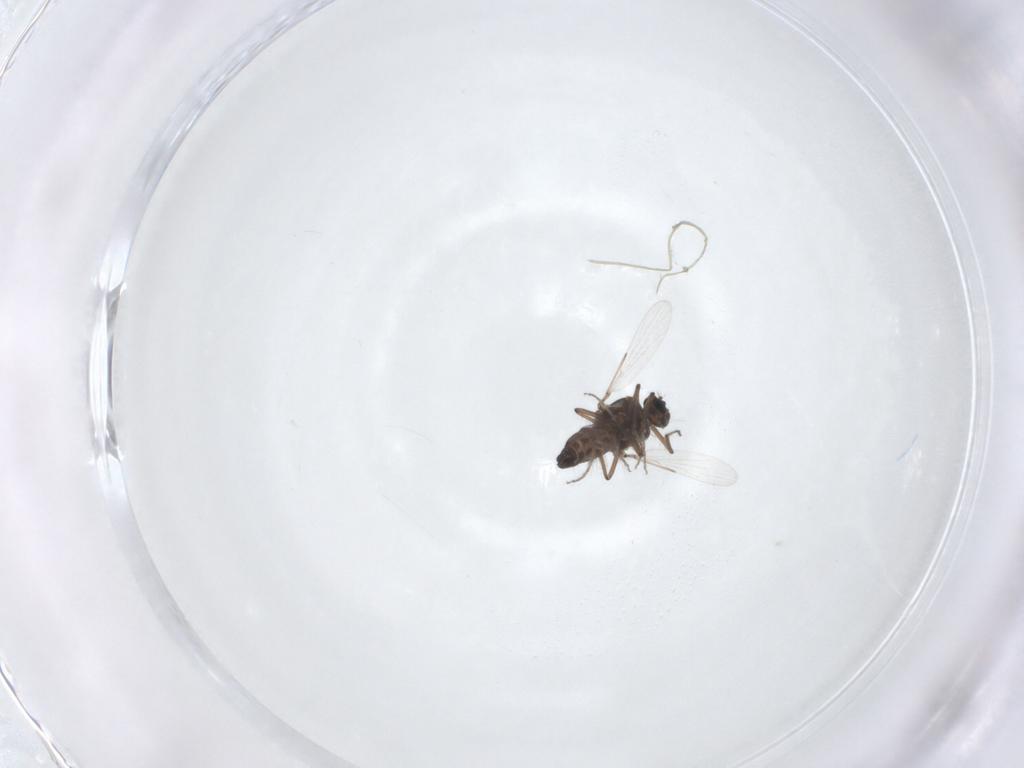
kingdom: Animalia
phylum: Arthropoda
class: Insecta
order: Diptera
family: Ceratopogonidae
